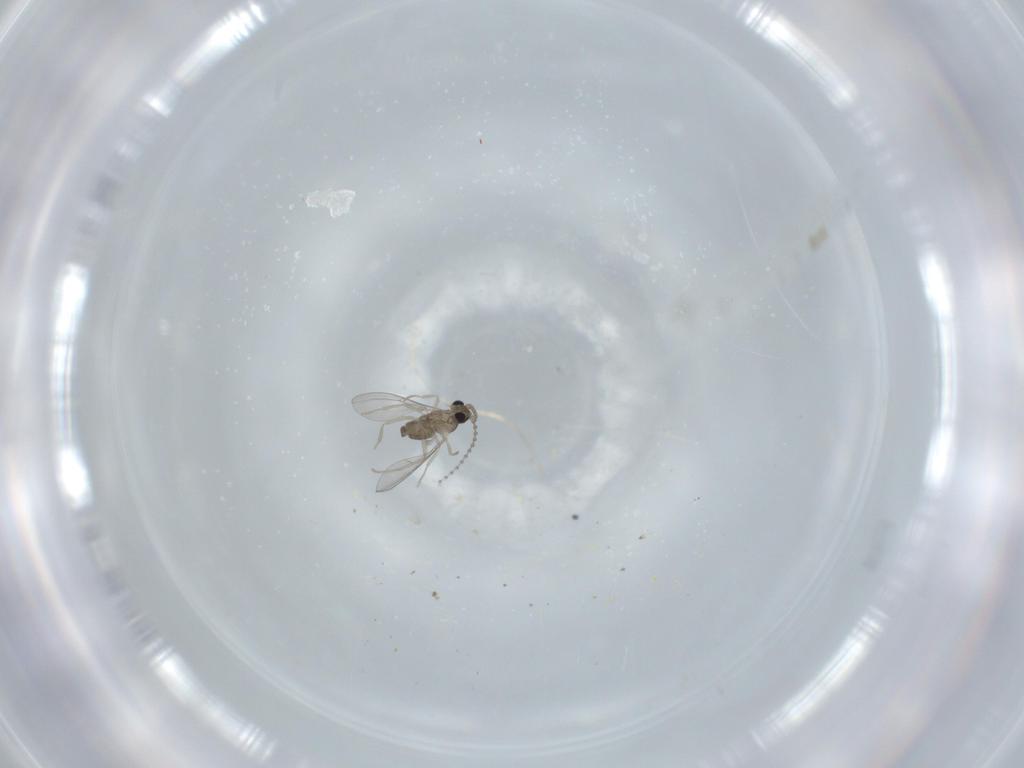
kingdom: Animalia
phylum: Arthropoda
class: Insecta
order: Diptera
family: Cecidomyiidae
